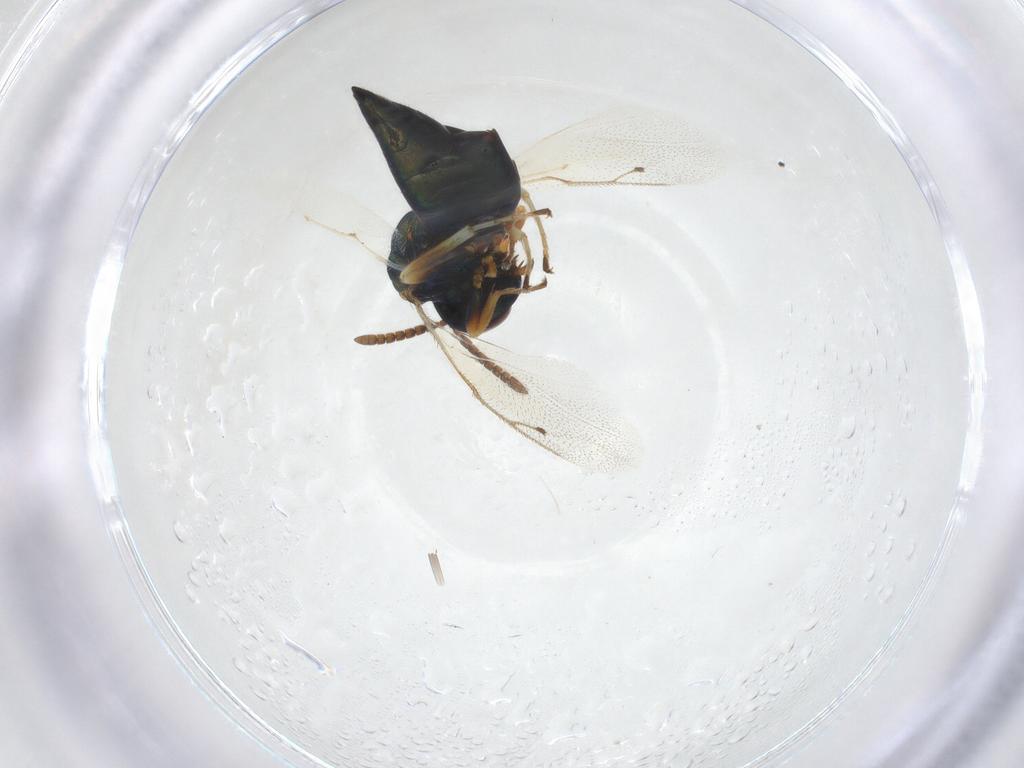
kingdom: Animalia
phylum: Arthropoda
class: Insecta
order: Hymenoptera
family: Pteromalidae
